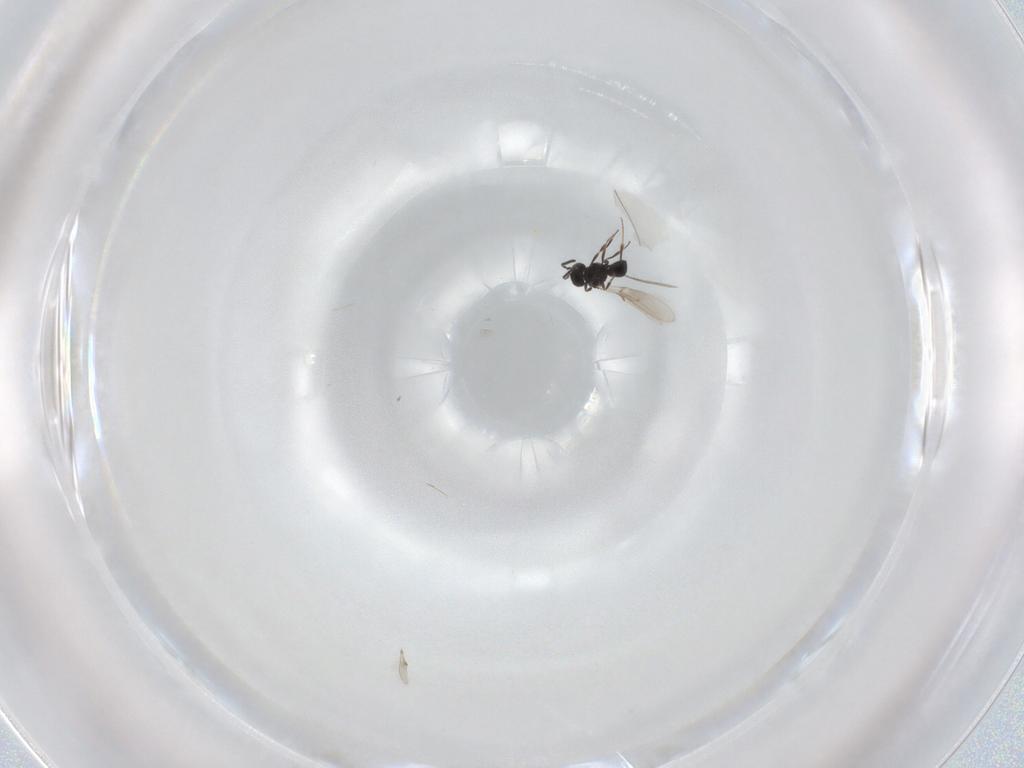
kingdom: Animalia
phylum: Arthropoda
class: Insecta
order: Hymenoptera
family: Scelionidae
